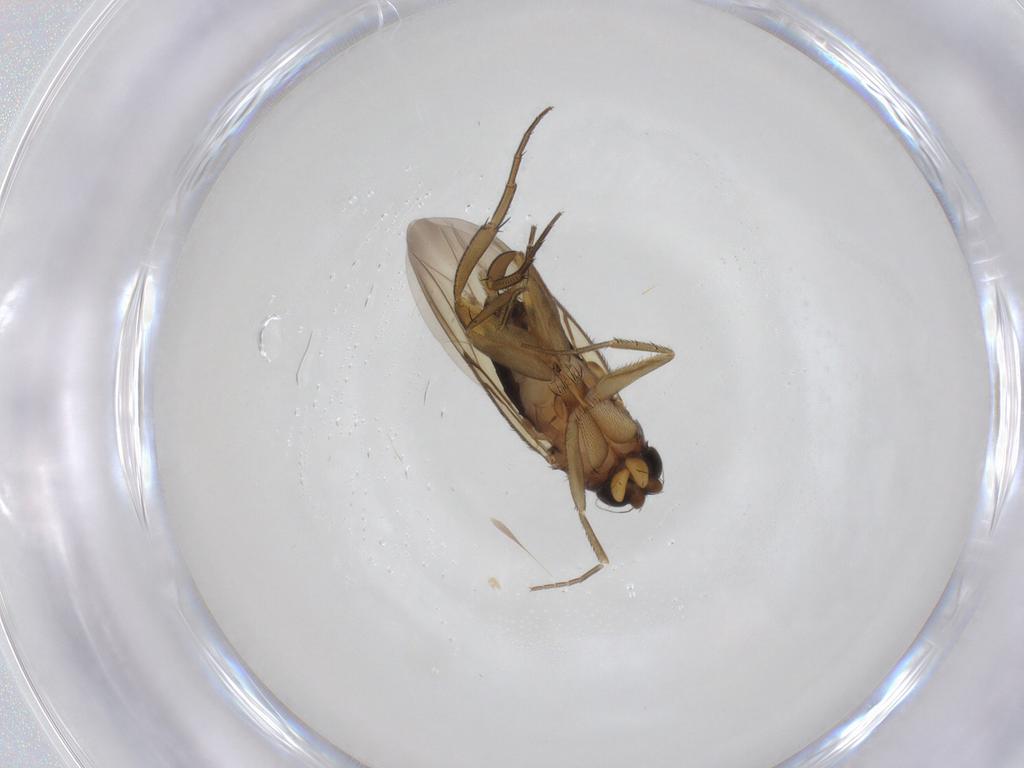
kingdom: Animalia
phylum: Arthropoda
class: Insecta
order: Diptera
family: Phoridae
